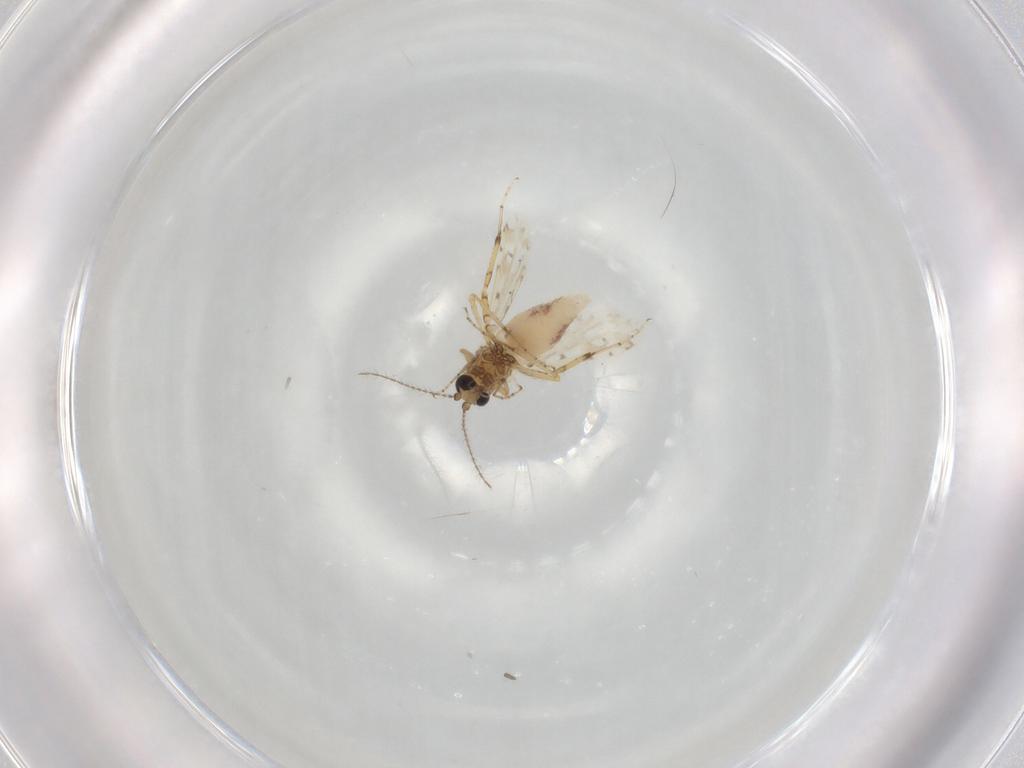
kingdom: Animalia
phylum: Arthropoda
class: Insecta
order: Diptera
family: Ceratopogonidae
